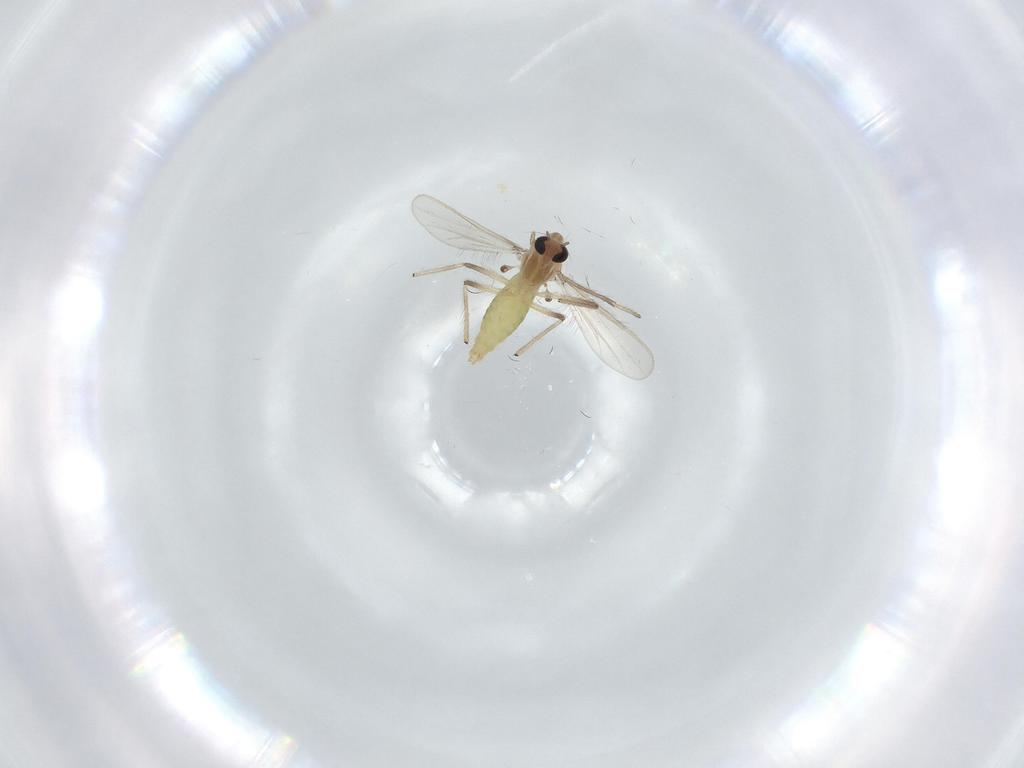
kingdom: Animalia
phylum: Arthropoda
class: Insecta
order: Diptera
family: Chironomidae
